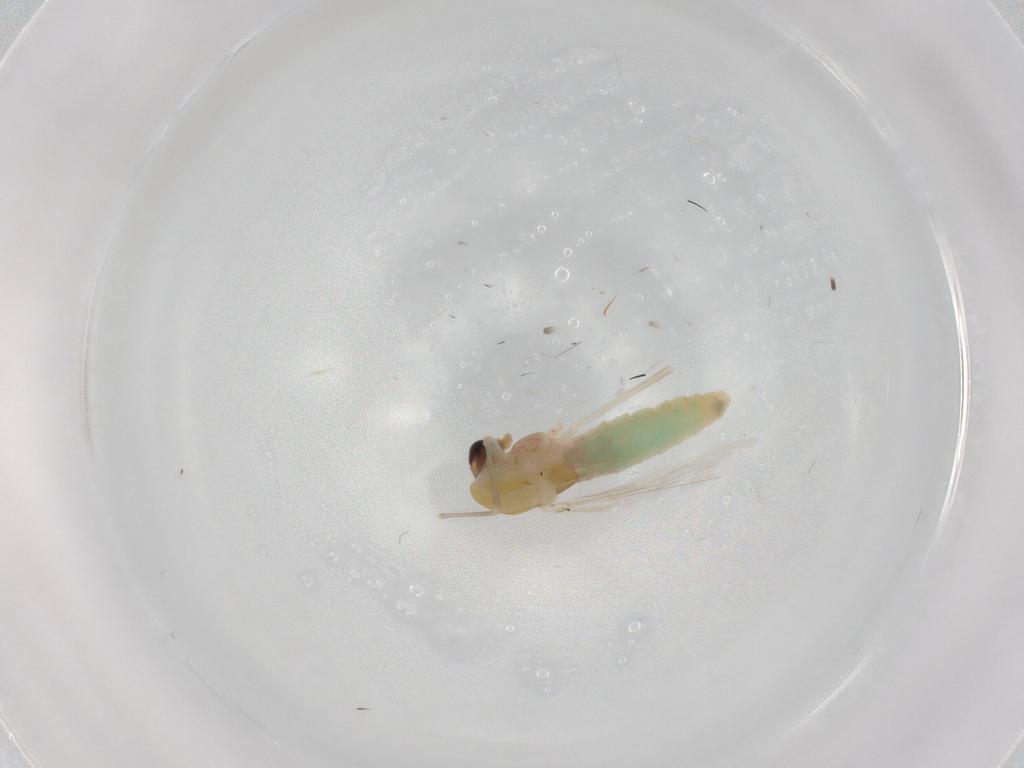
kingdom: Animalia
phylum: Arthropoda
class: Insecta
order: Diptera
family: Chironomidae
